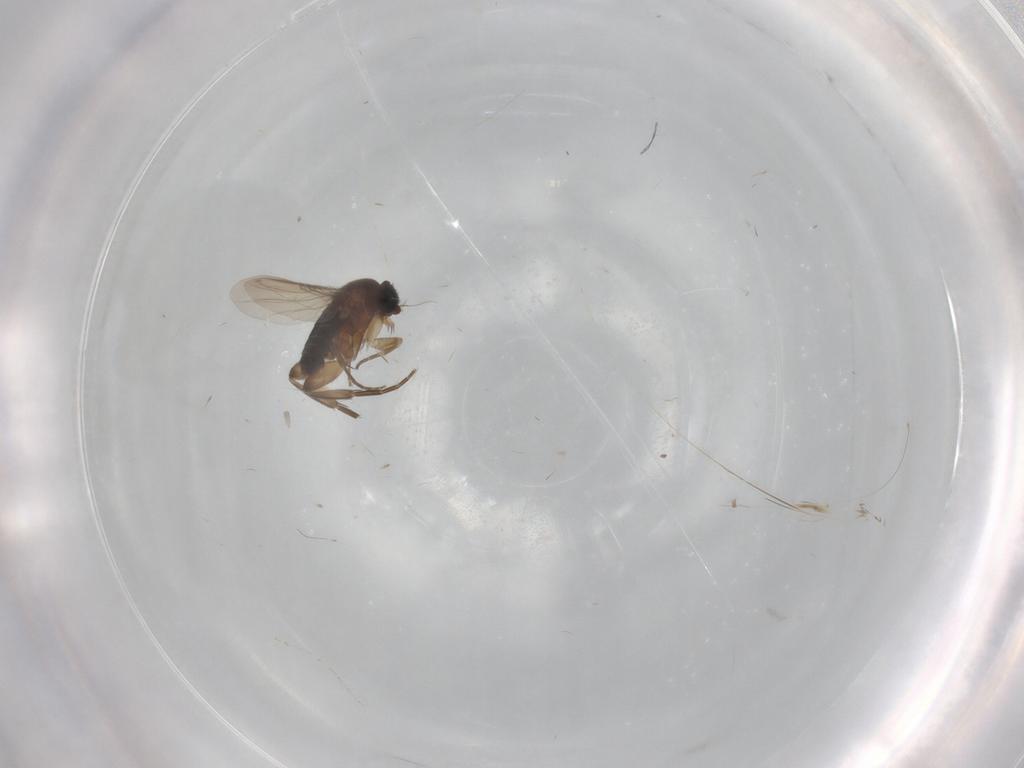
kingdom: Animalia
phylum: Arthropoda
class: Insecta
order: Diptera
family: Chaoboridae
